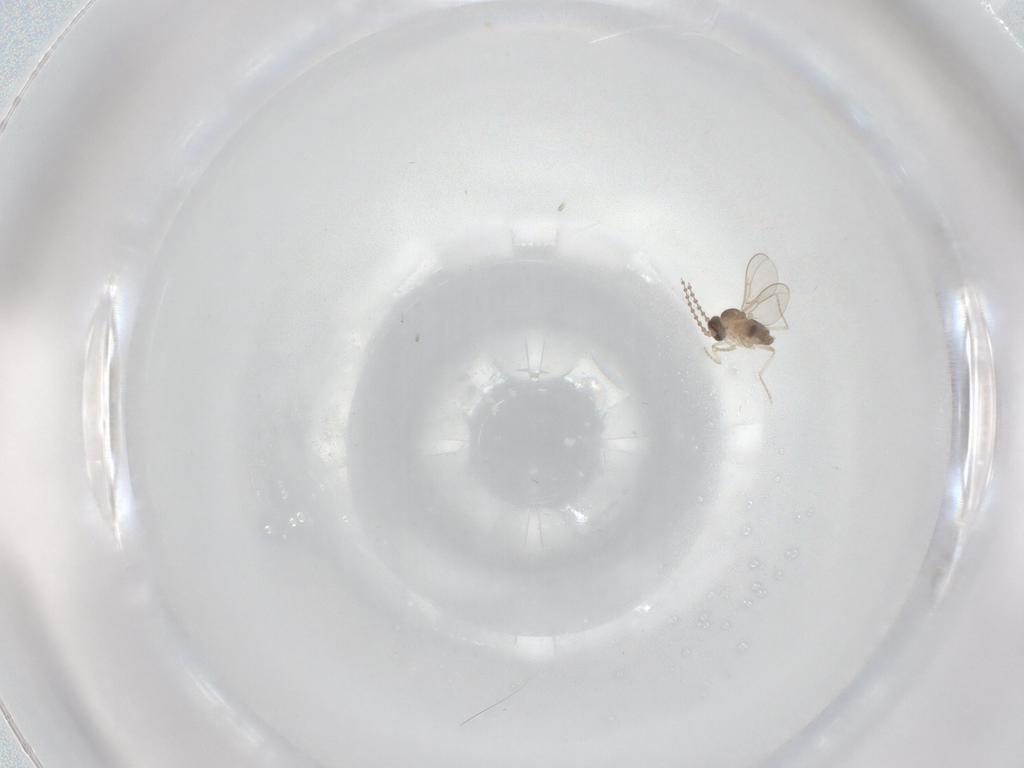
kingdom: Animalia
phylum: Arthropoda
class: Insecta
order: Diptera
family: Cecidomyiidae
